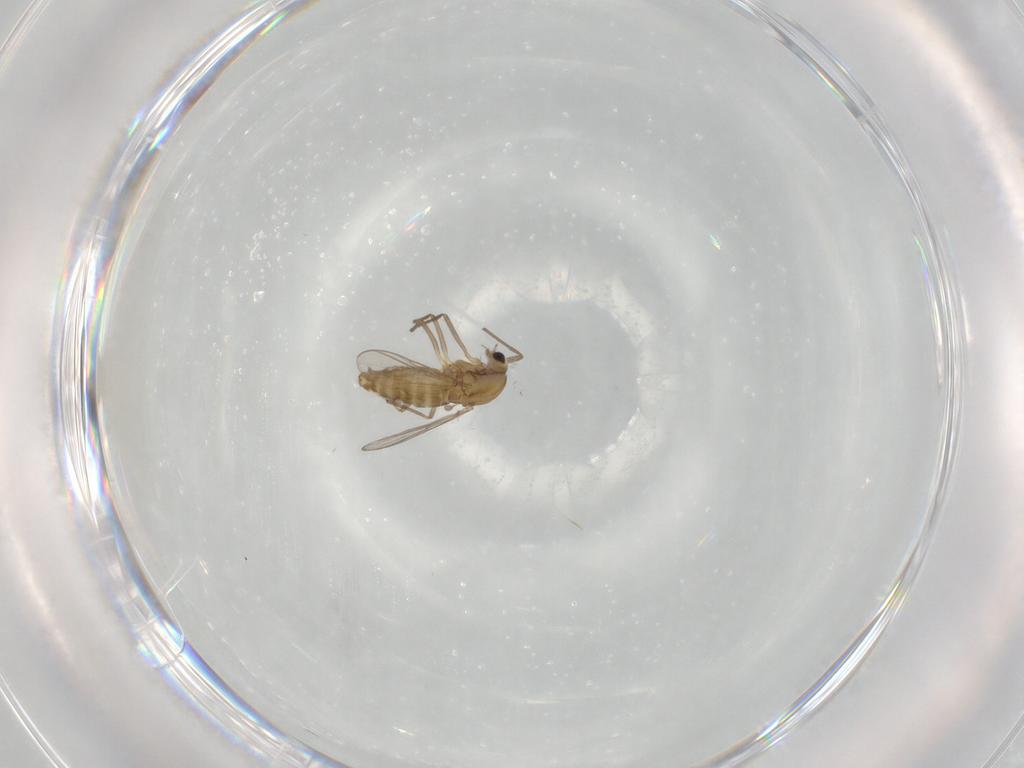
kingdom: Animalia
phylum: Arthropoda
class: Insecta
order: Diptera
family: Chironomidae
